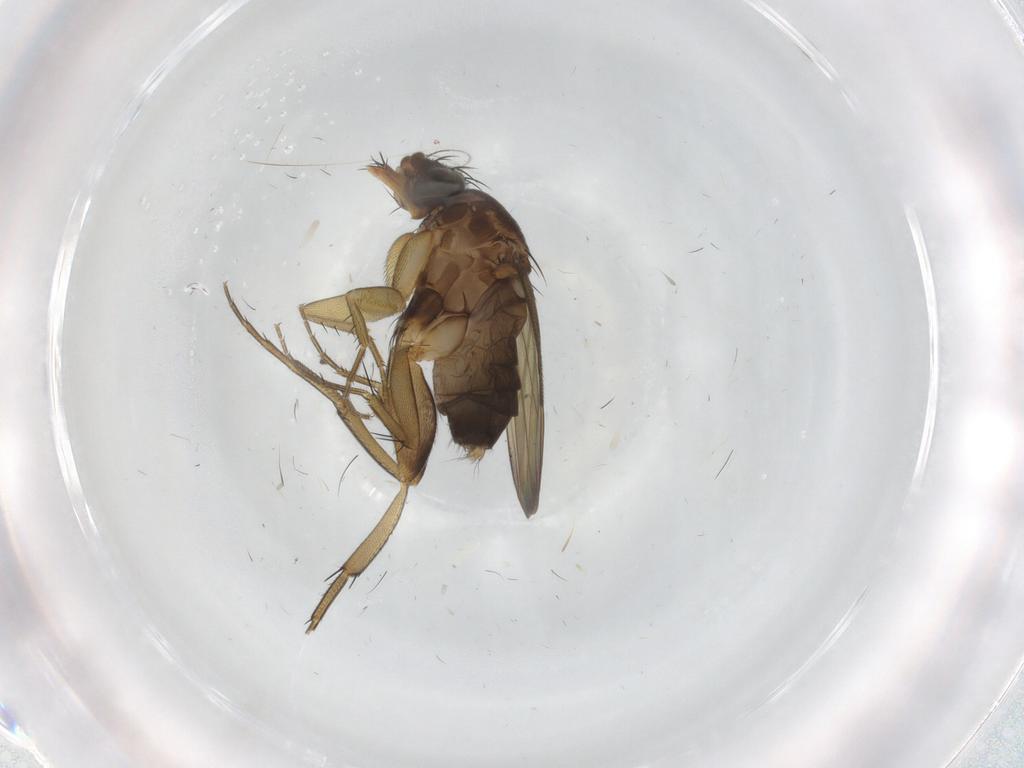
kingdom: Animalia
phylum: Arthropoda
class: Insecta
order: Diptera
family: Phoridae
